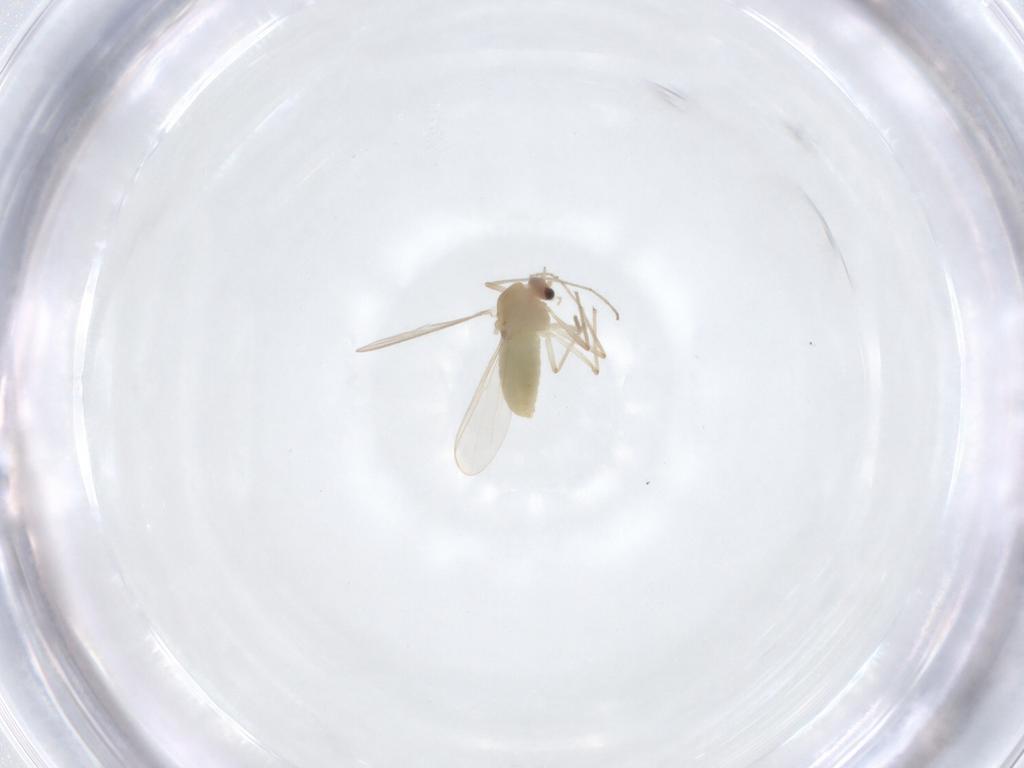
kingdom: Animalia
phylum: Arthropoda
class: Insecta
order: Diptera
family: Chironomidae
